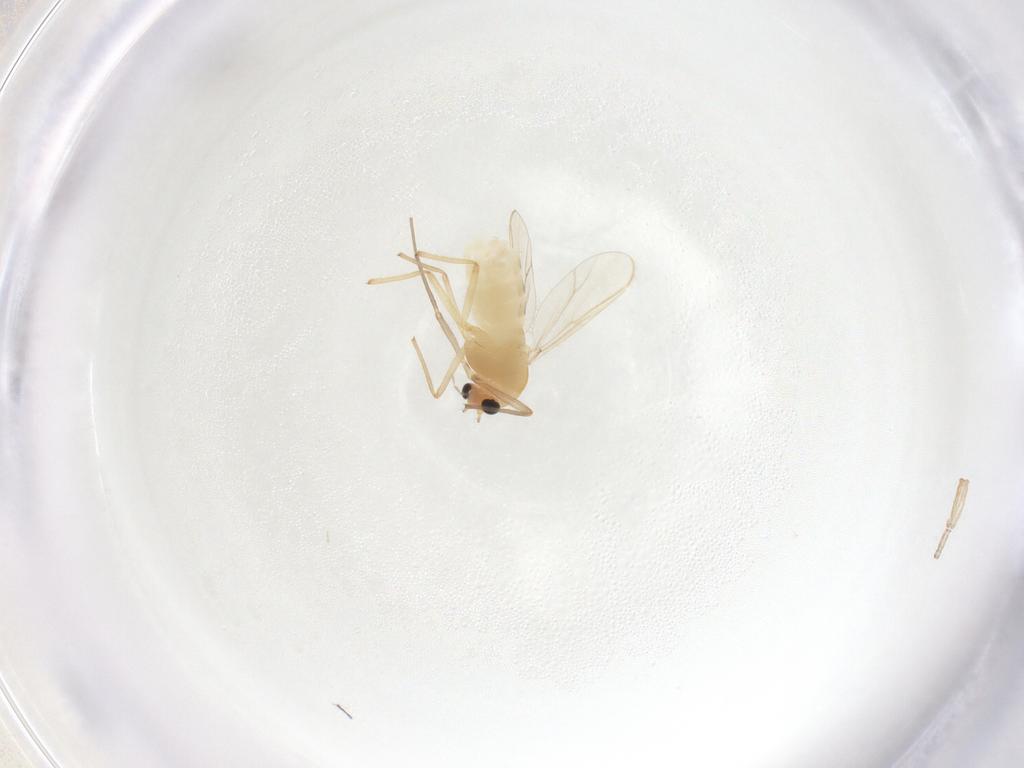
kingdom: Animalia
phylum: Arthropoda
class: Insecta
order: Diptera
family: Chironomidae
